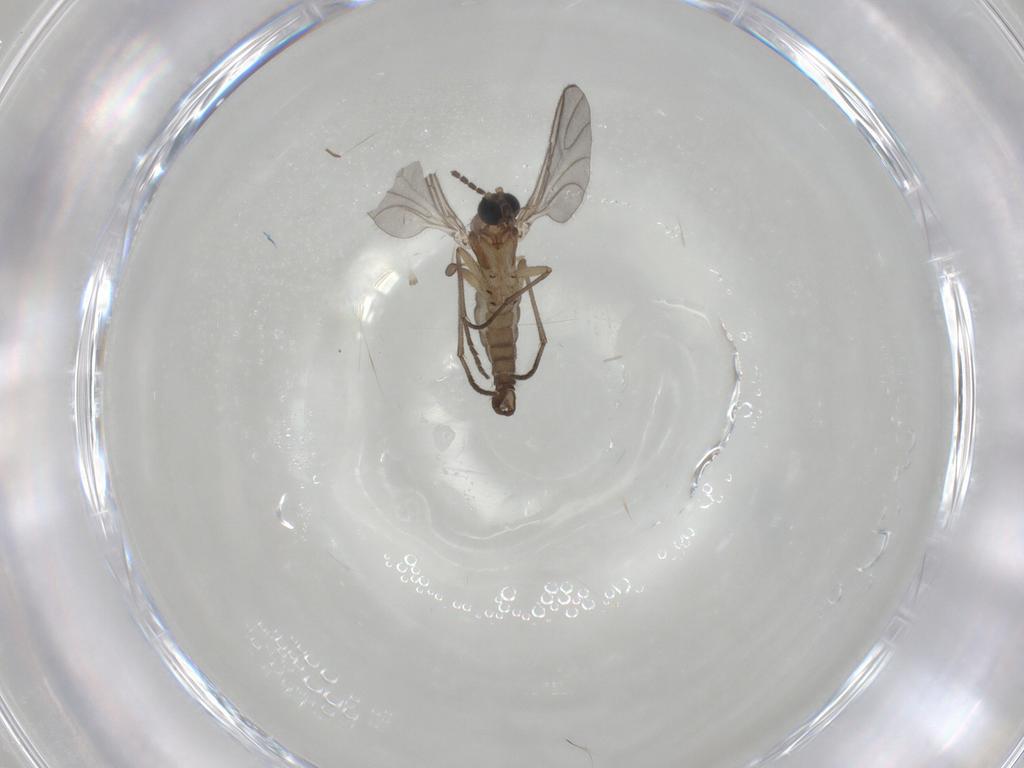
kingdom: Animalia
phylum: Arthropoda
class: Insecta
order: Diptera
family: Sciaridae
